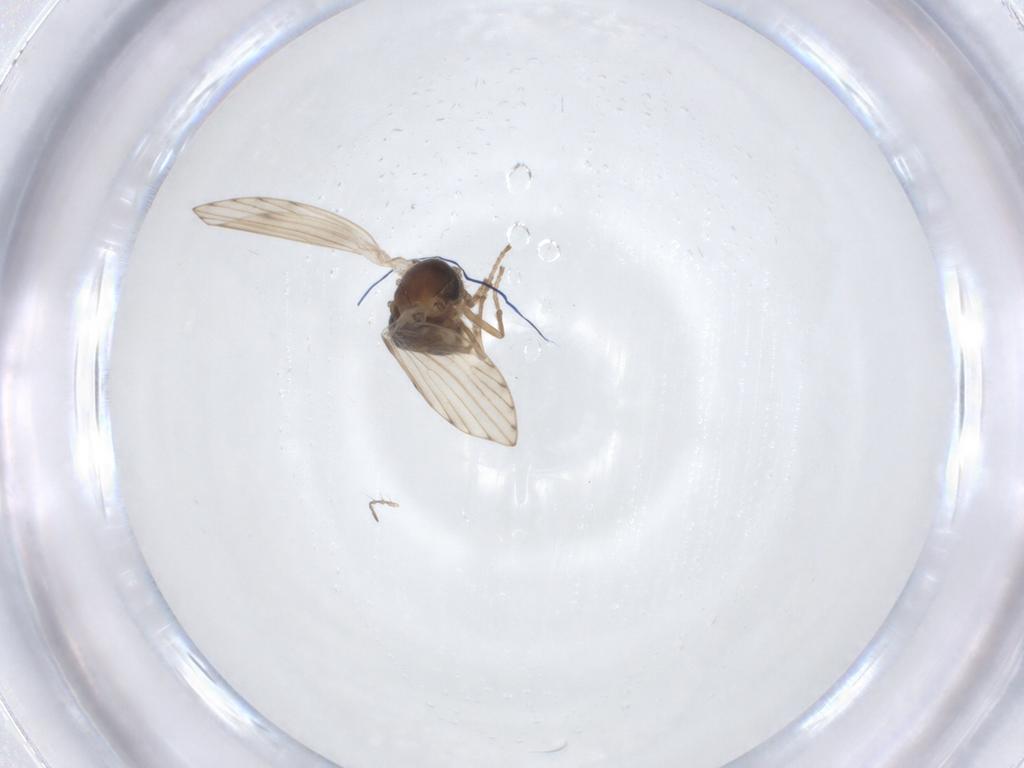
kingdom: Animalia
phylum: Arthropoda
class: Insecta
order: Diptera
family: Psychodidae
